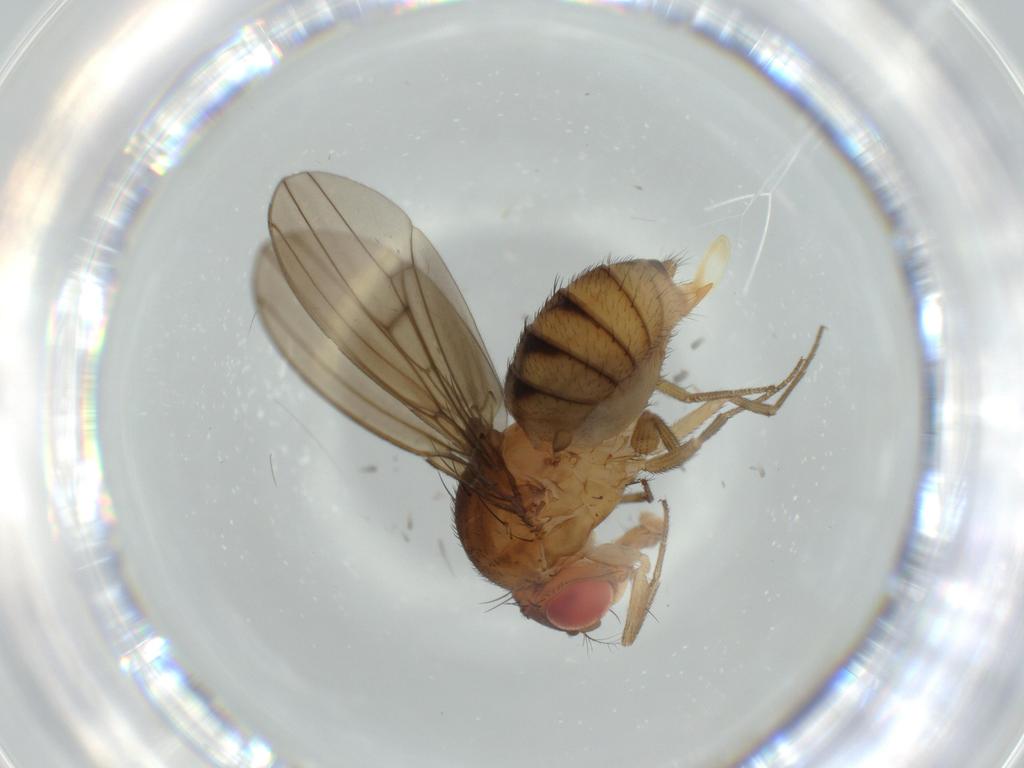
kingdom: Animalia
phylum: Arthropoda
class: Insecta
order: Diptera
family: Drosophilidae
